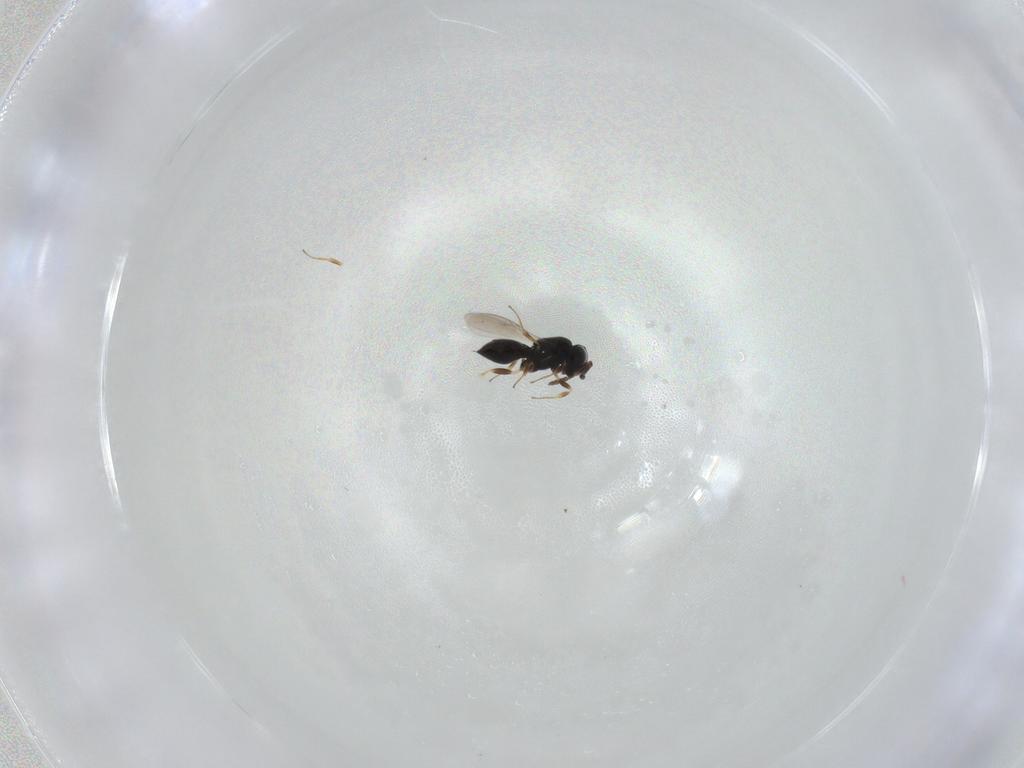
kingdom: Animalia
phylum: Arthropoda
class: Insecta
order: Hymenoptera
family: Scelionidae
